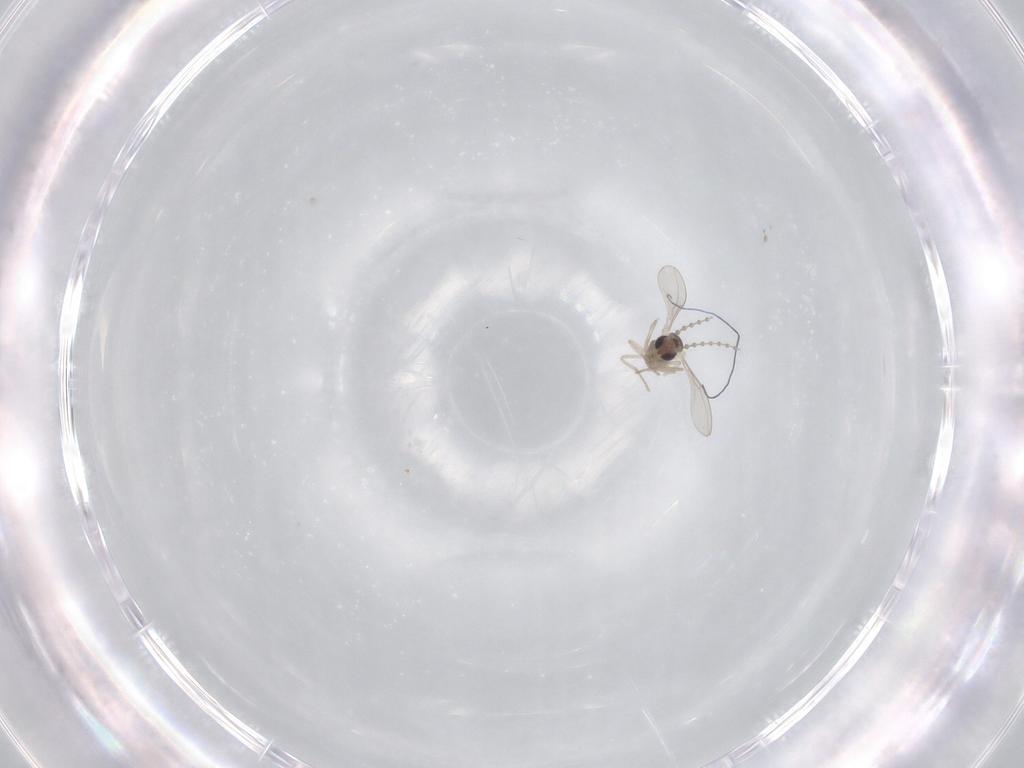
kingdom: Animalia
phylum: Arthropoda
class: Insecta
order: Diptera
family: Cecidomyiidae
